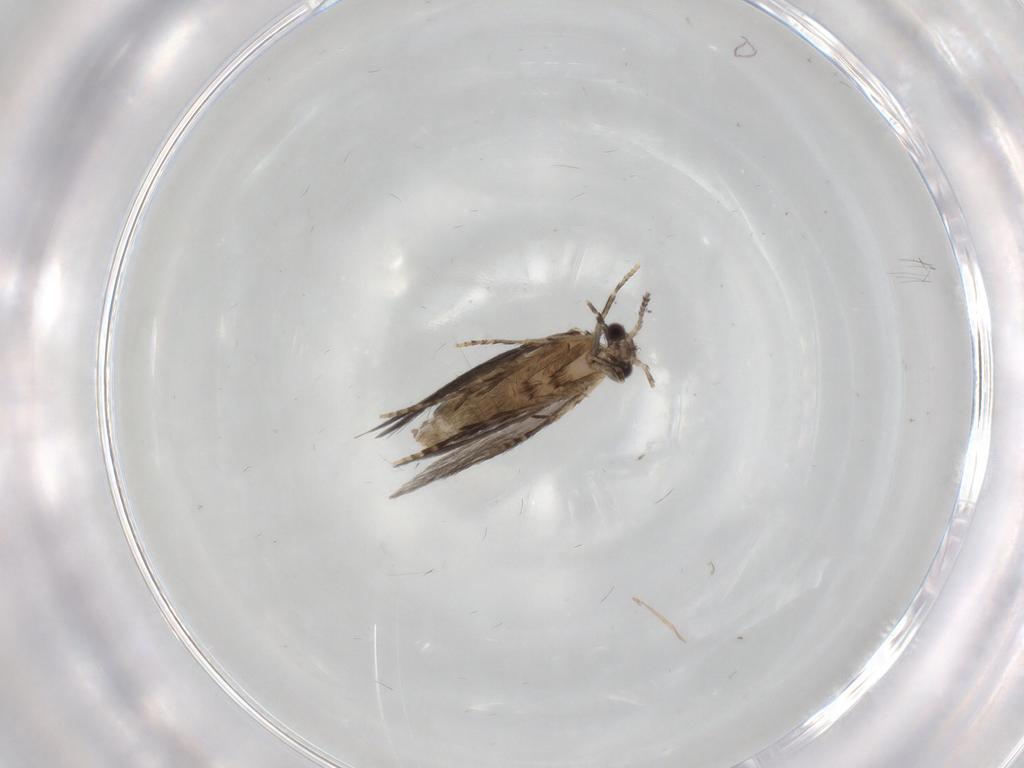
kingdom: Animalia
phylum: Arthropoda
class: Insecta
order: Trichoptera
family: Hydroptilidae
